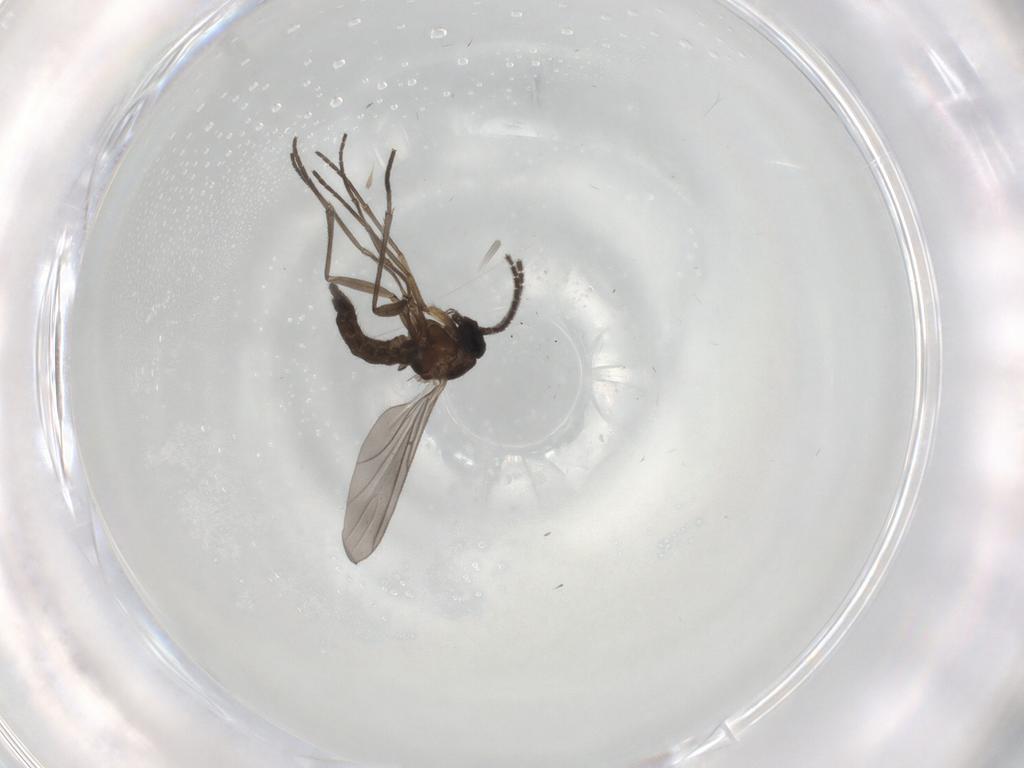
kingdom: Animalia
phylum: Arthropoda
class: Insecta
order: Diptera
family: Sciaridae
